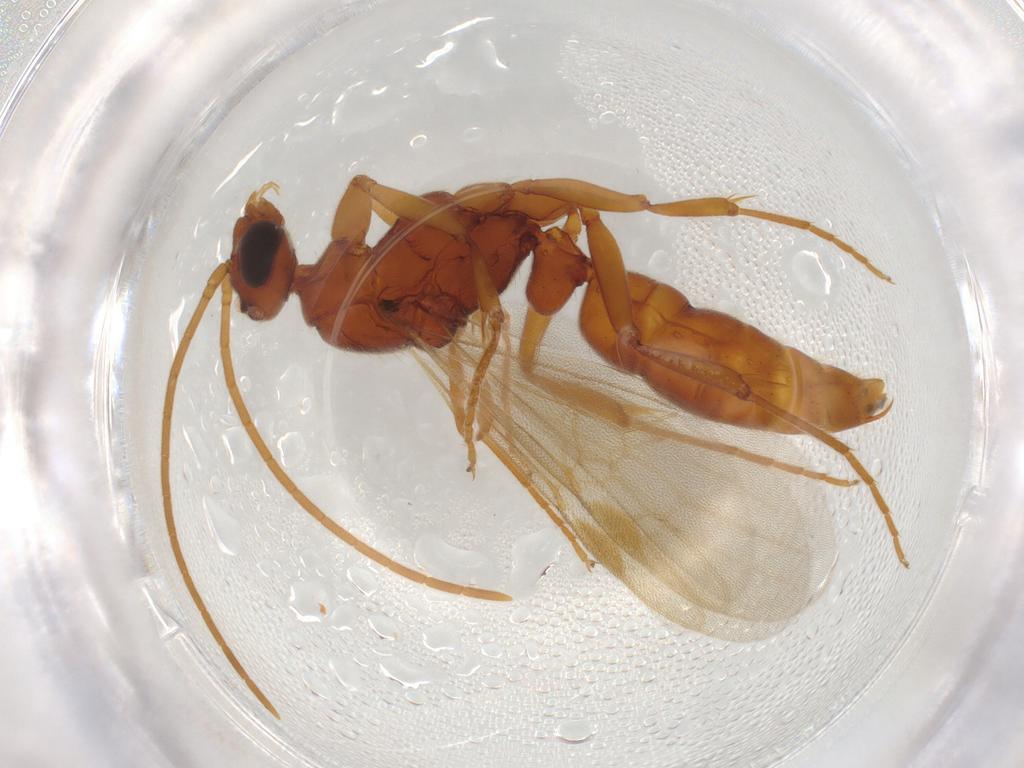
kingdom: Animalia
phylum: Arthropoda
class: Insecta
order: Hymenoptera
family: Formicidae
